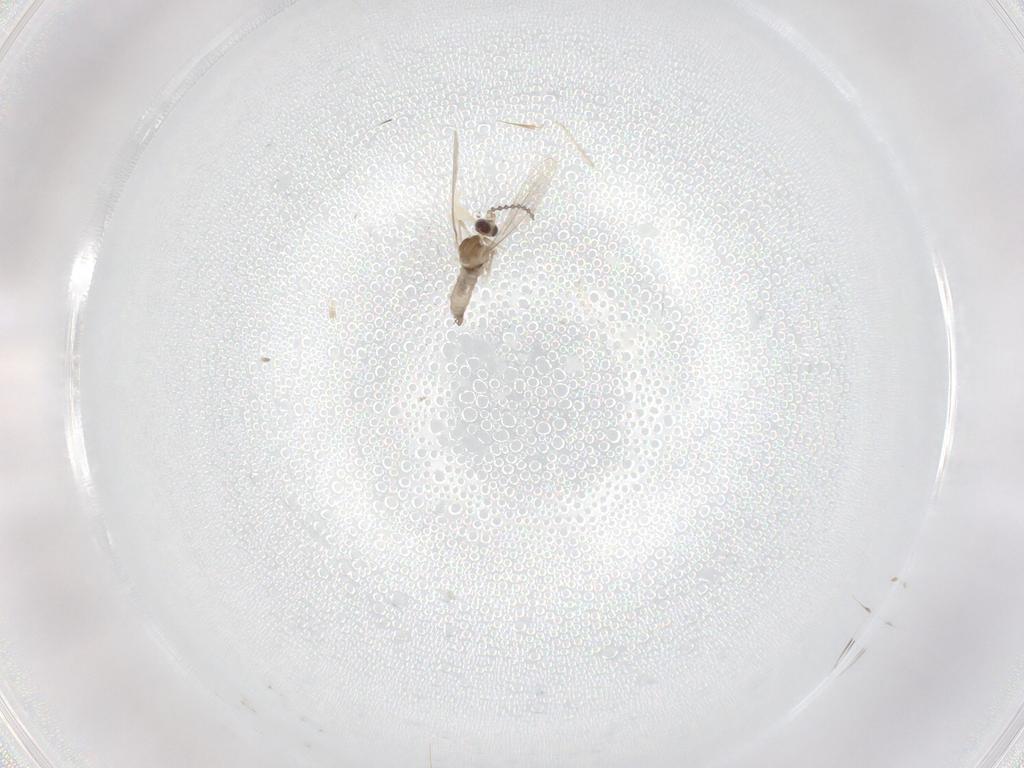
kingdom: Animalia
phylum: Arthropoda
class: Insecta
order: Diptera
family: Cecidomyiidae
